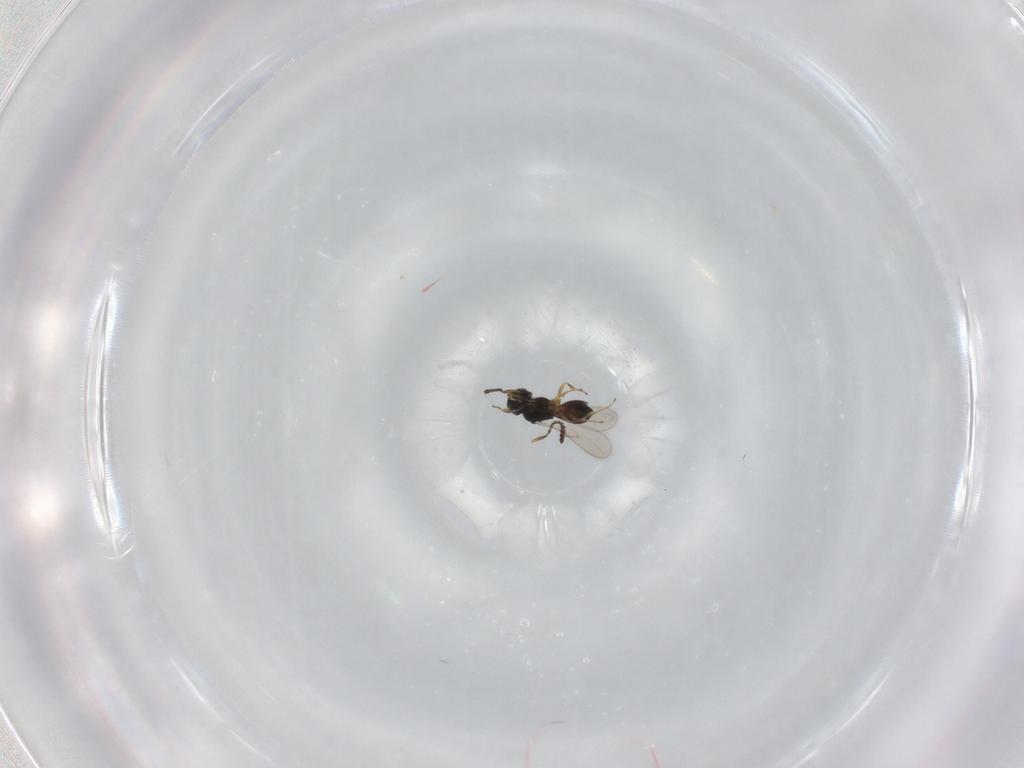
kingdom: Animalia
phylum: Arthropoda
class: Insecta
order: Hymenoptera
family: Scelionidae
